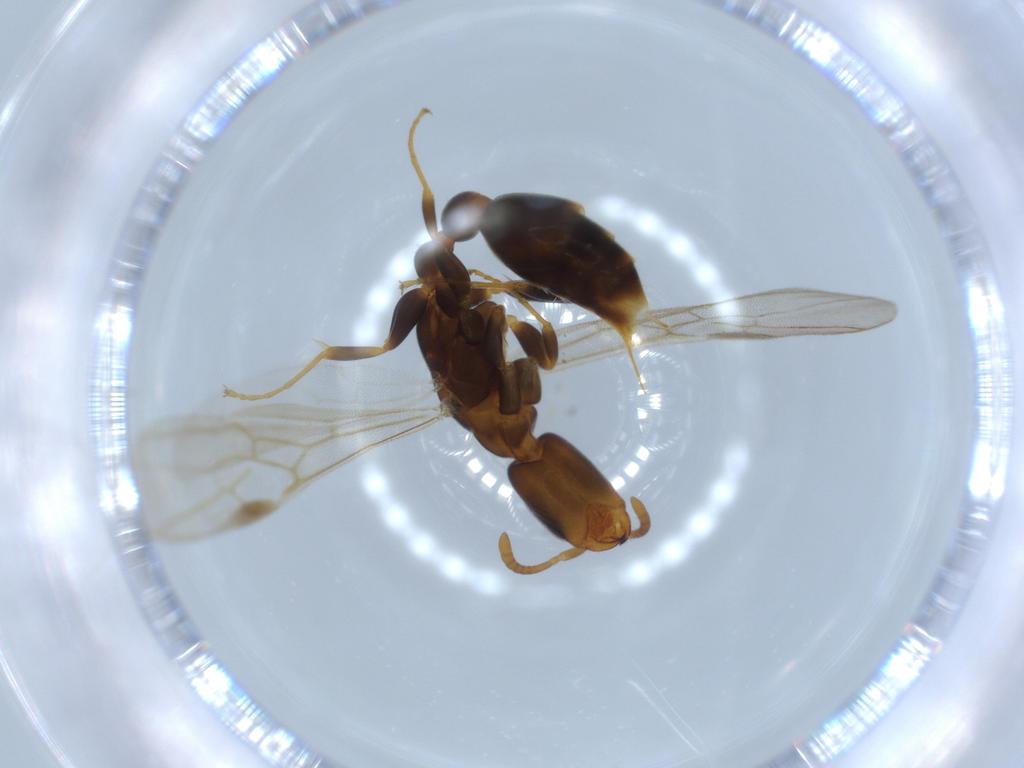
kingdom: Animalia
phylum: Arthropoda
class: Insecta
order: Hymenoptera
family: Formicidae
